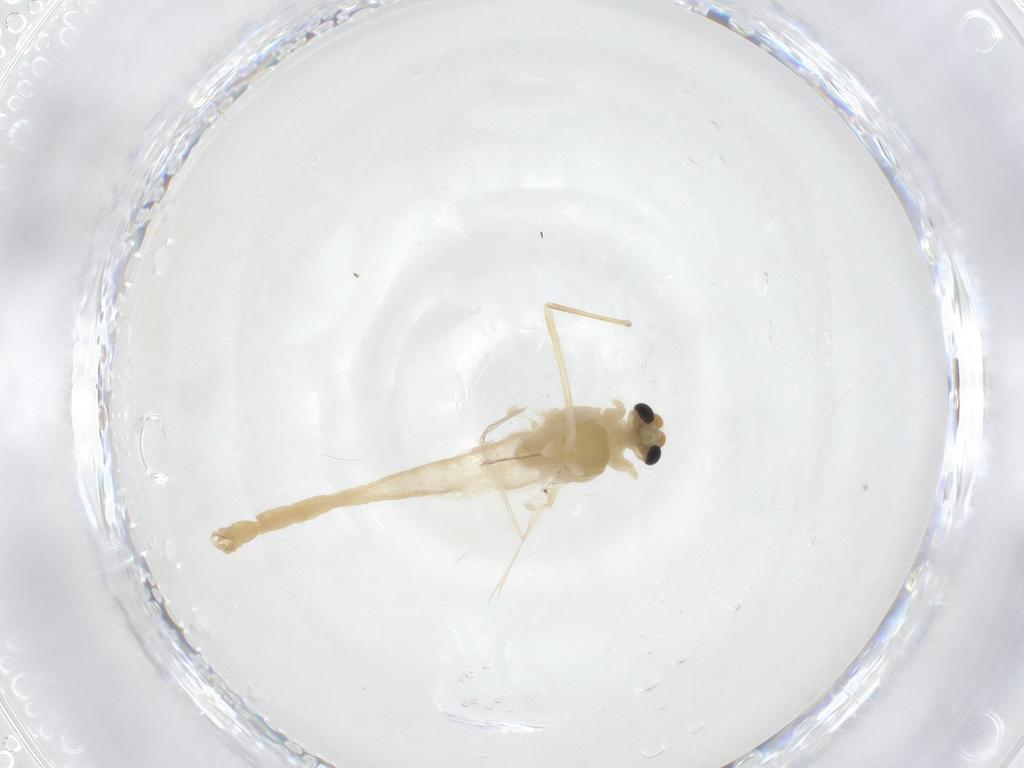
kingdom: Animalia
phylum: Arthropoda
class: Insecta
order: Diptera
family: Chironomidae
